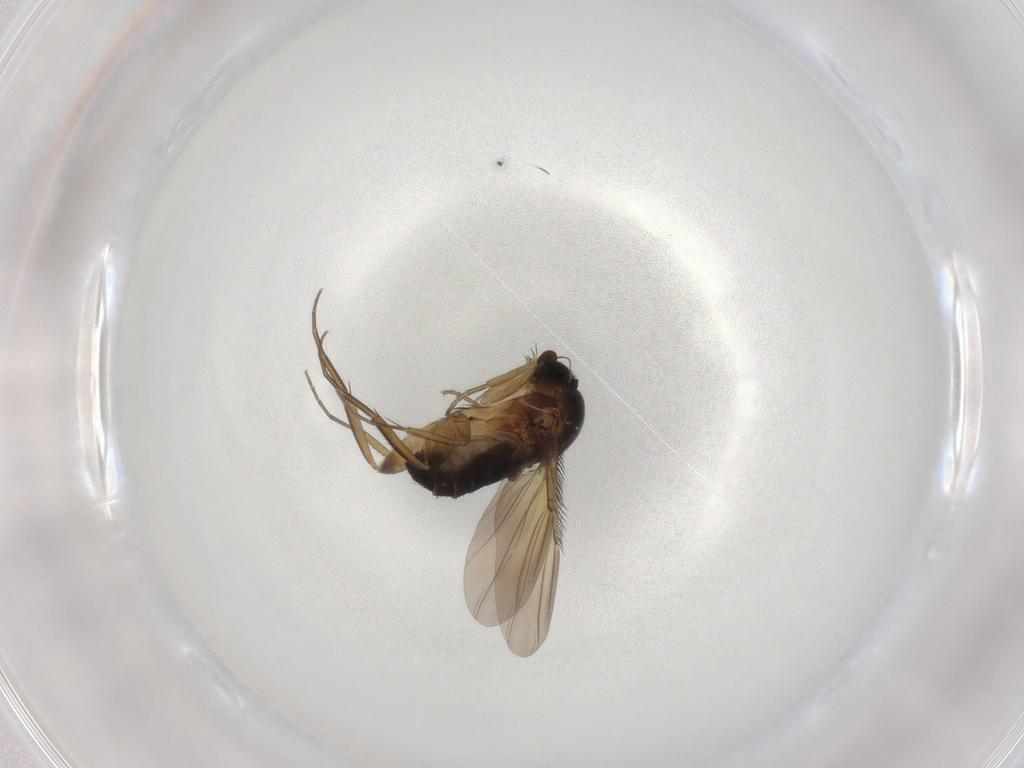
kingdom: Animalia
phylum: Arthropoda
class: Insecta
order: Diptera
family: Phoridae
